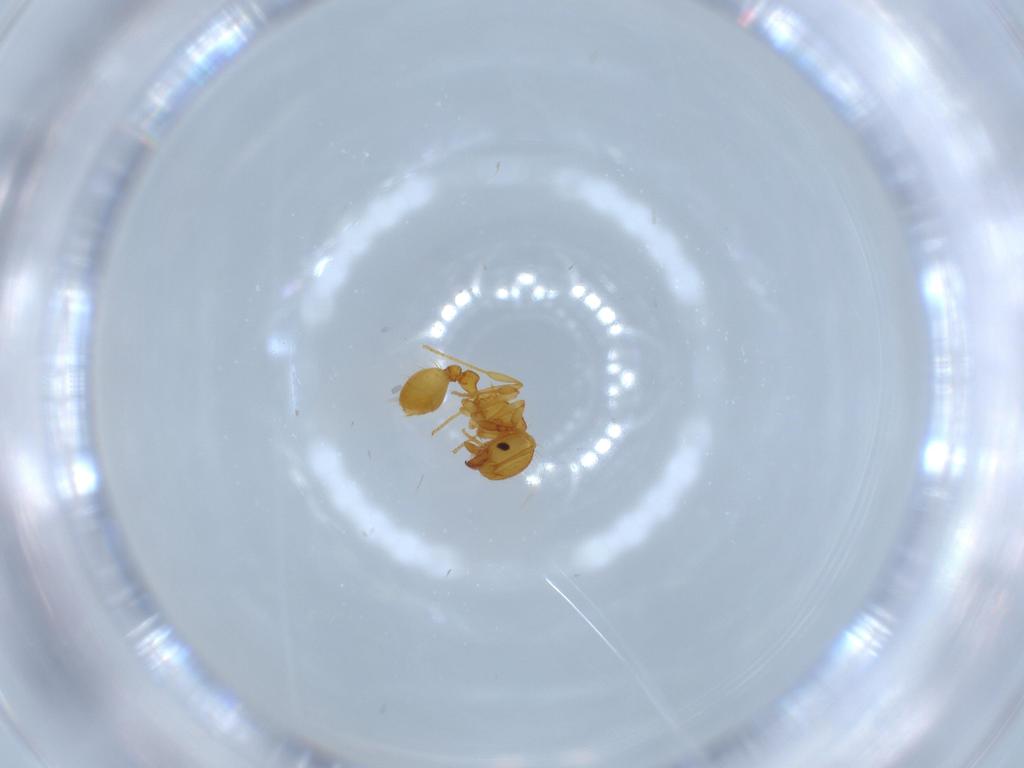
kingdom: Animalia
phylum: Arthropoda
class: Insecta
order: Hymenoptera
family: Formicidae
